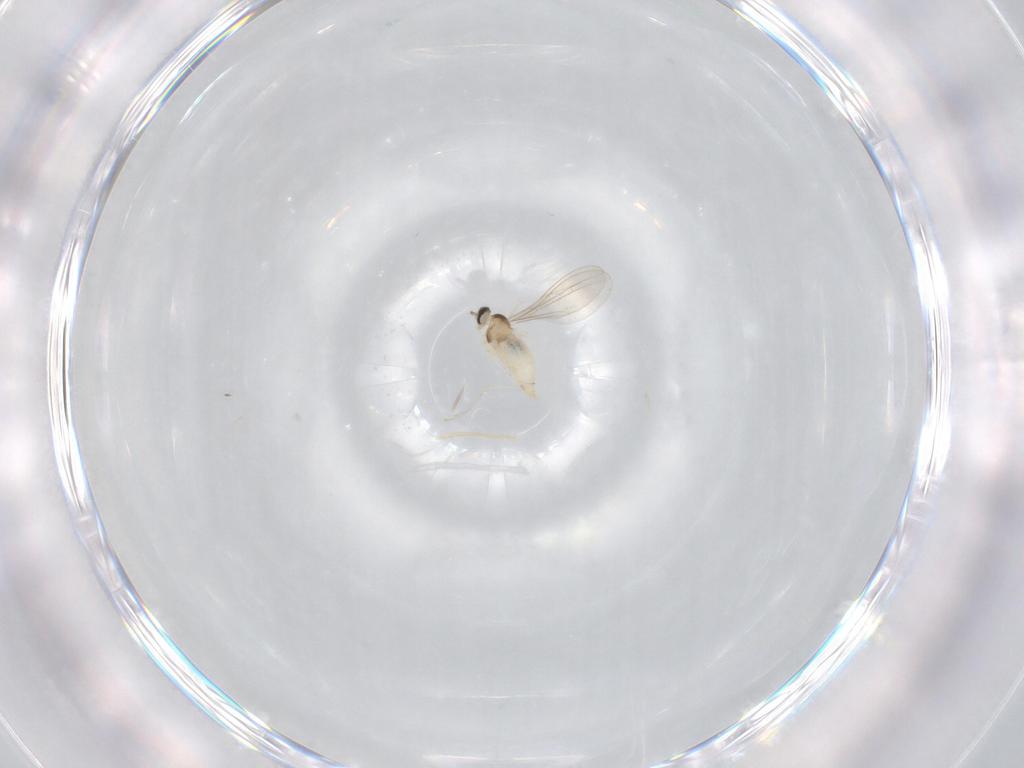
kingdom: Animalia
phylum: Arthropoda
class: Insecta
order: Diptera
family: Cecidomyiidae
